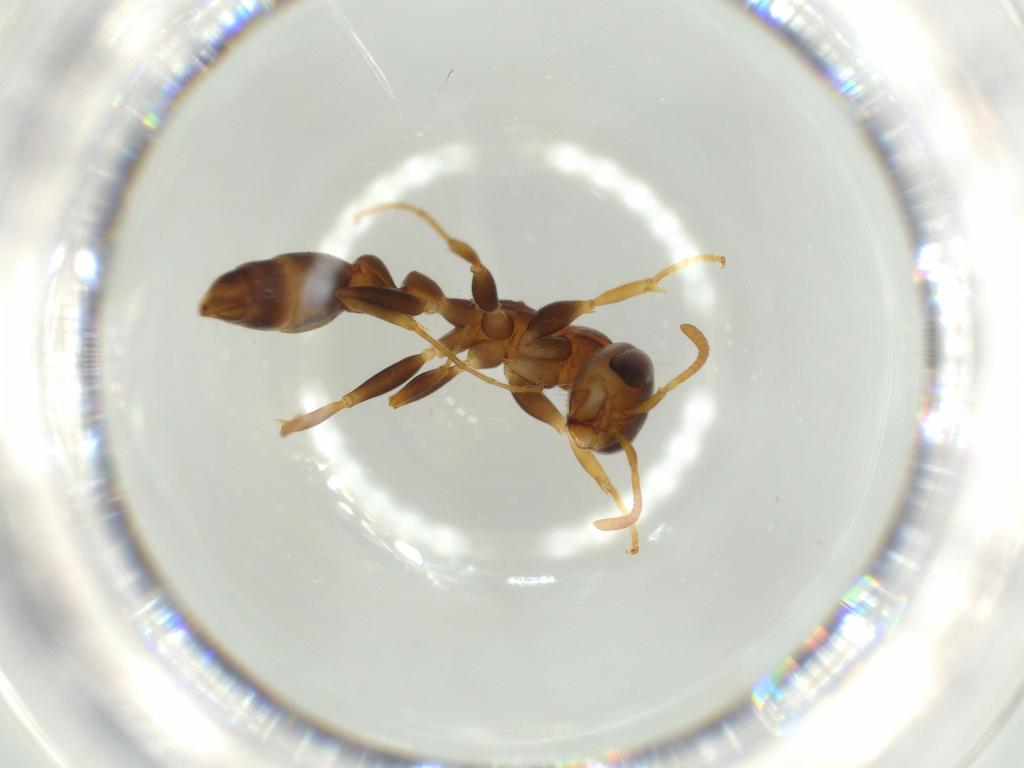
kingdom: Animalia
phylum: Arthropoda
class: Insecta
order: Hymenoptera
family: Formicidae
